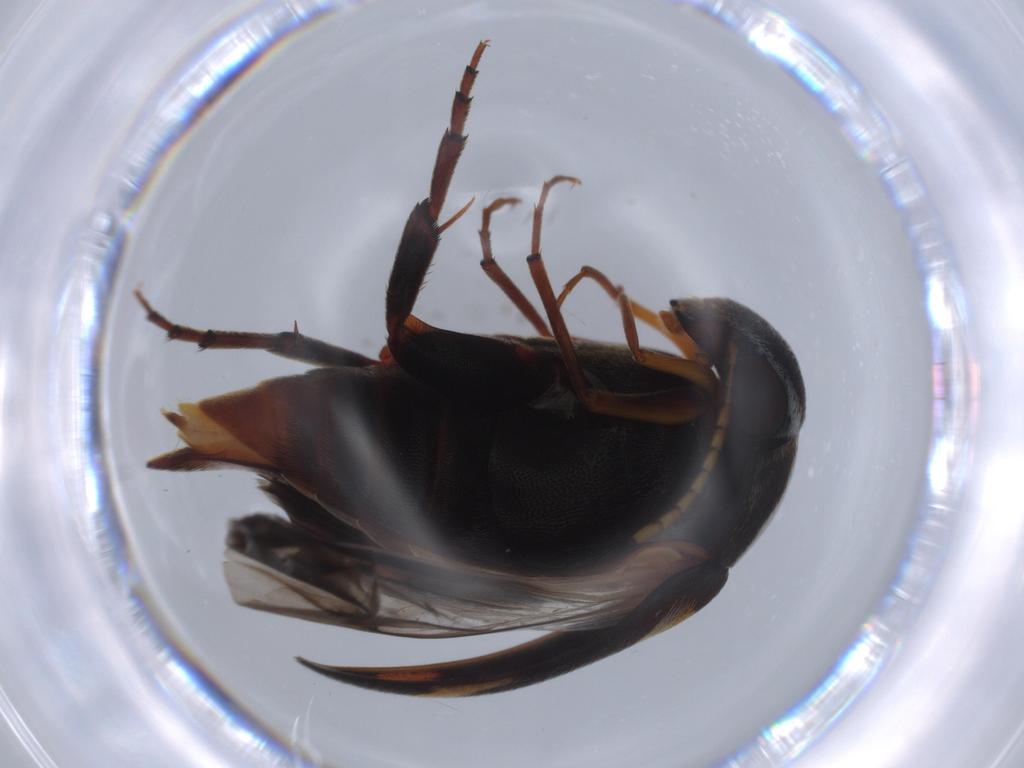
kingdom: Animalia
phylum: Arthropoda
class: Insecta
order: Coleoptera
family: Mordellidae
